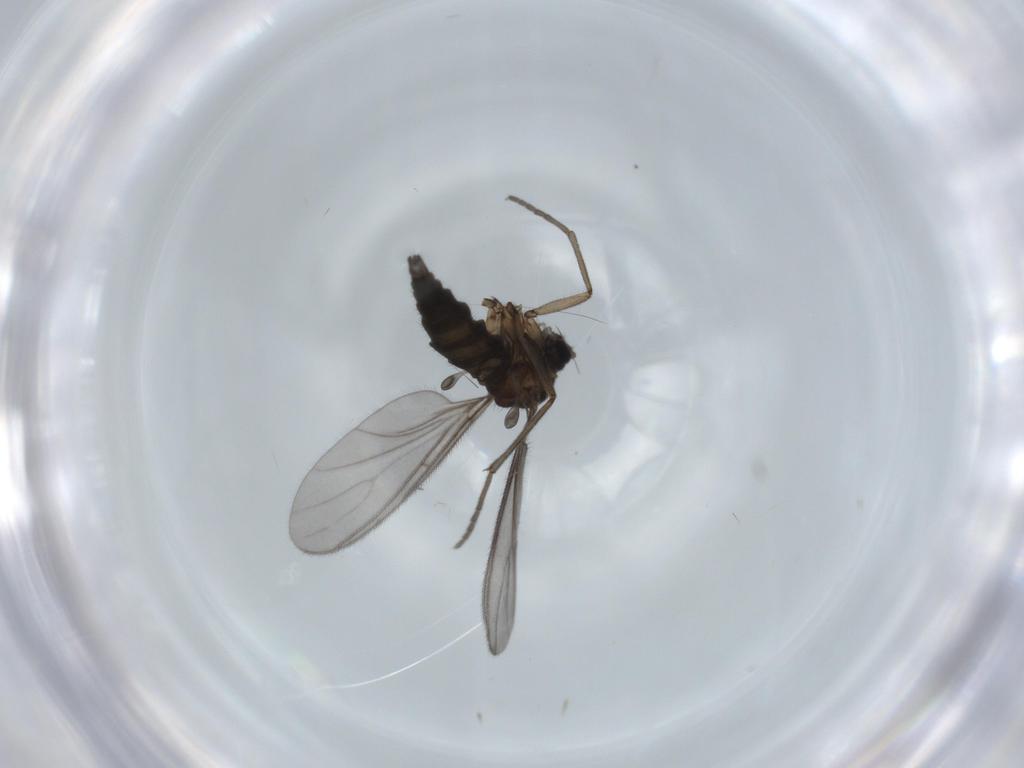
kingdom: Animalia
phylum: Arthropoda
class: Insecta
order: Diptera
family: Sciaridae
